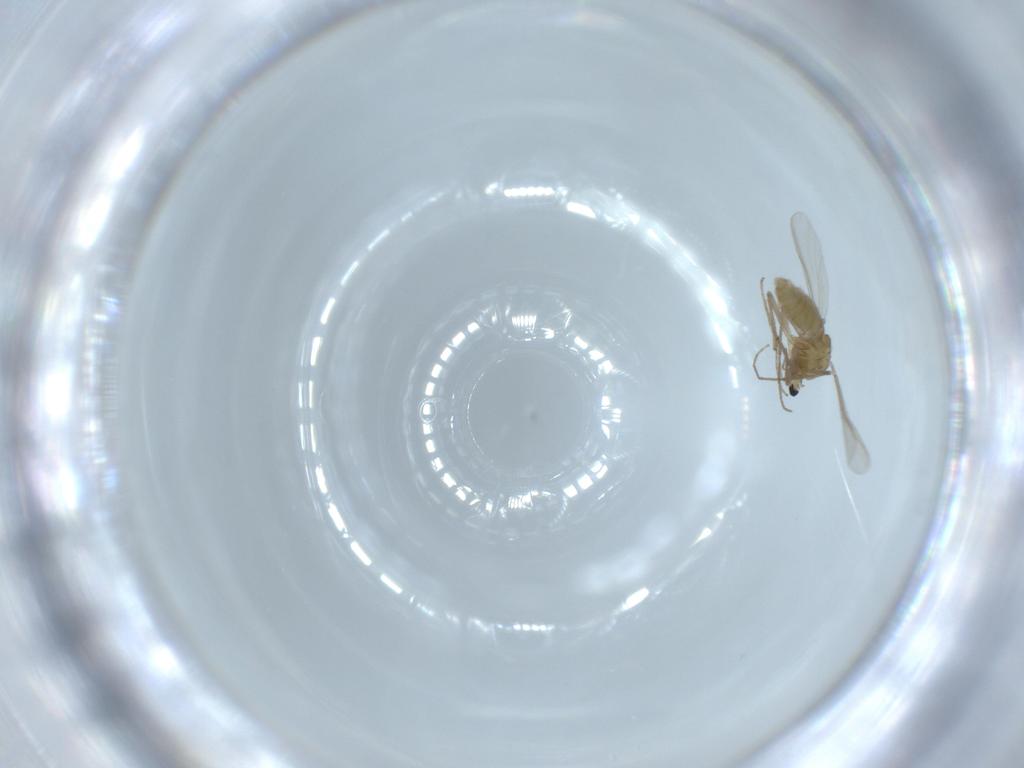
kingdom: Animalia
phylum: Arthropoda
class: Insecta
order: Diptera
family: Chironomidae
